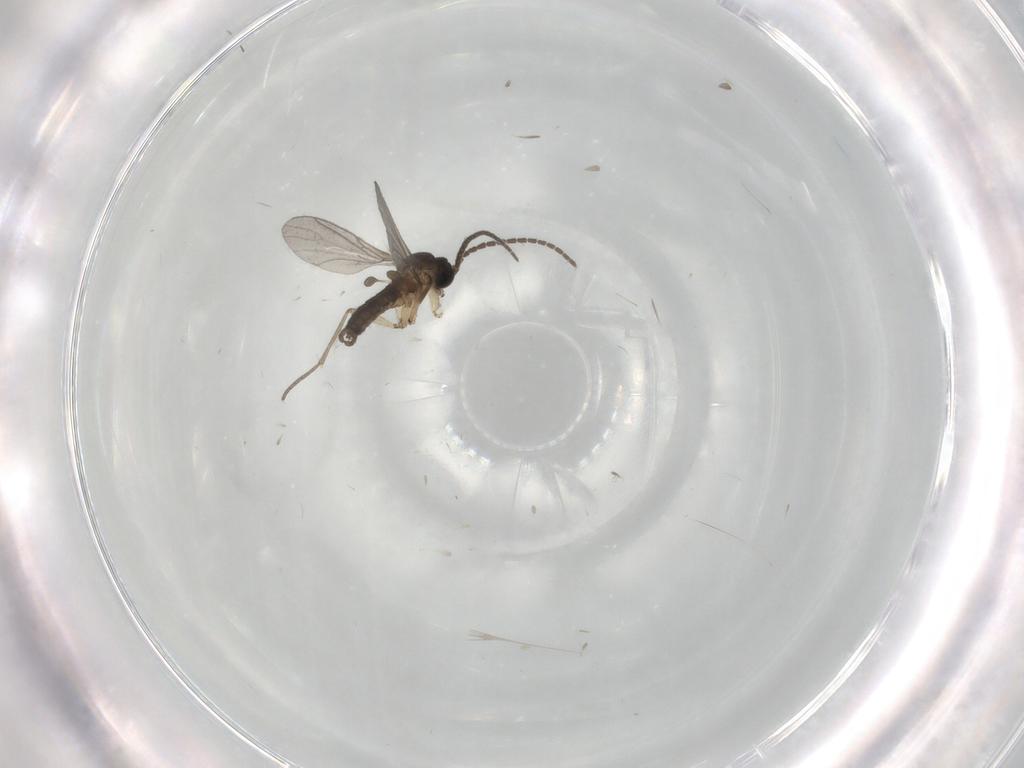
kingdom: Animalia
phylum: Arthropoda
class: Insecta
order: Diptera
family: Sciaridae
